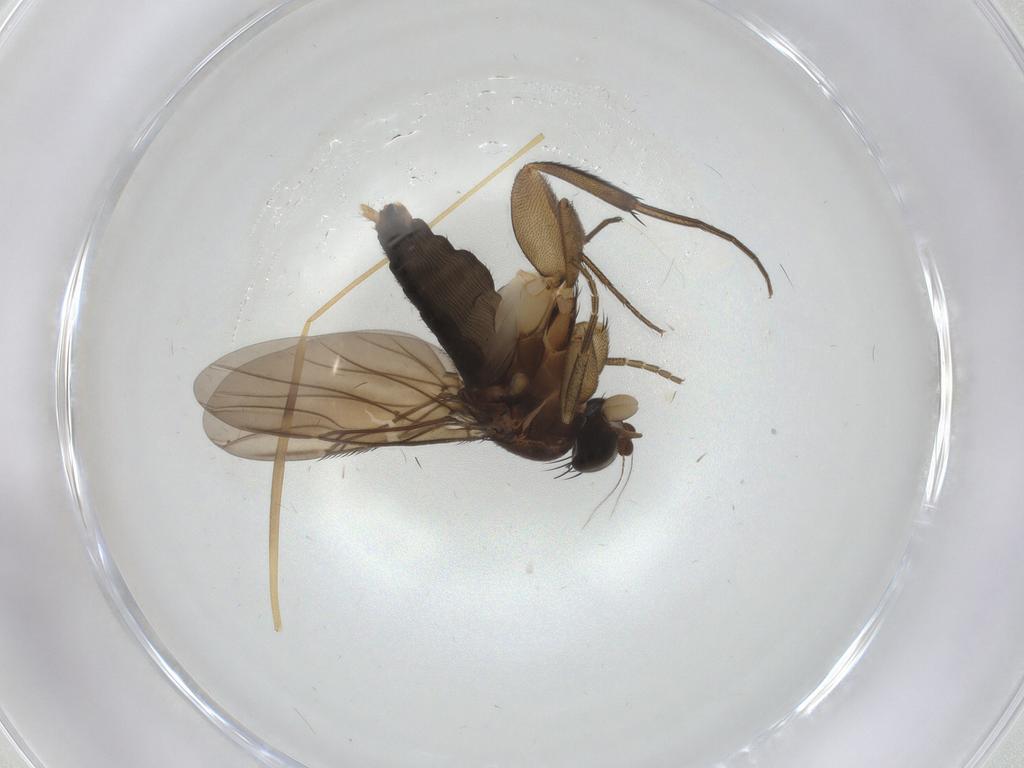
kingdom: Animalia
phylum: Arthropoda
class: Insecta
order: Diptera
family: Phoridae
